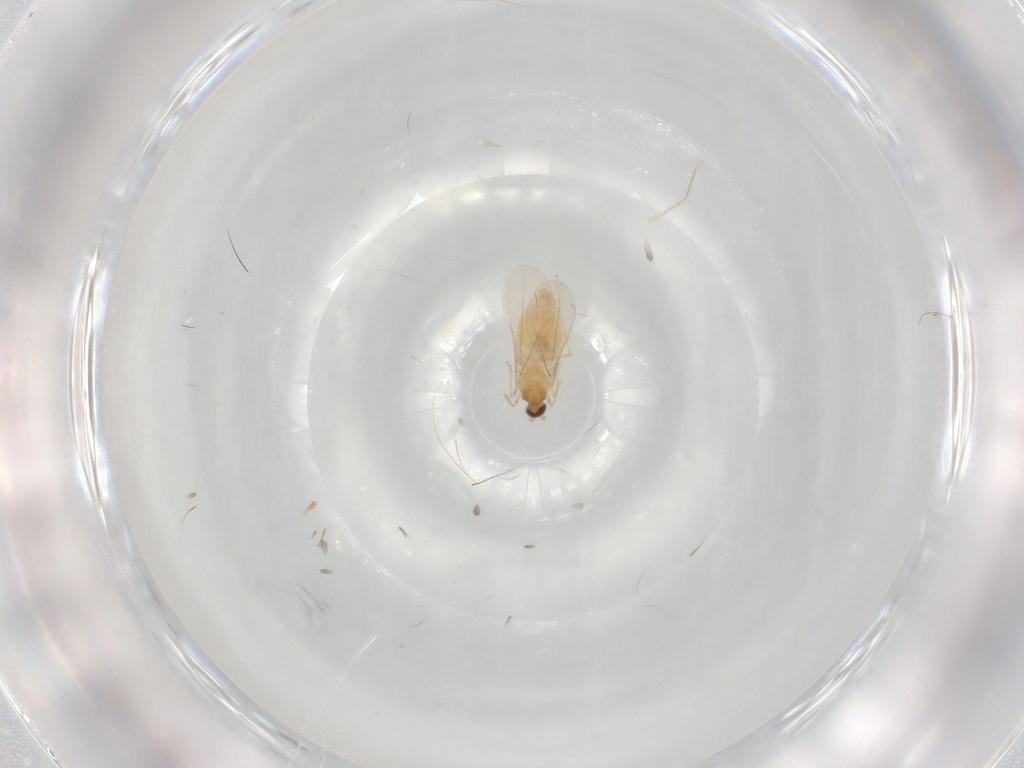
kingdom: Animalia
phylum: Arthropoda
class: Insecta
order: Diptera
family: Cecidomyiidae
